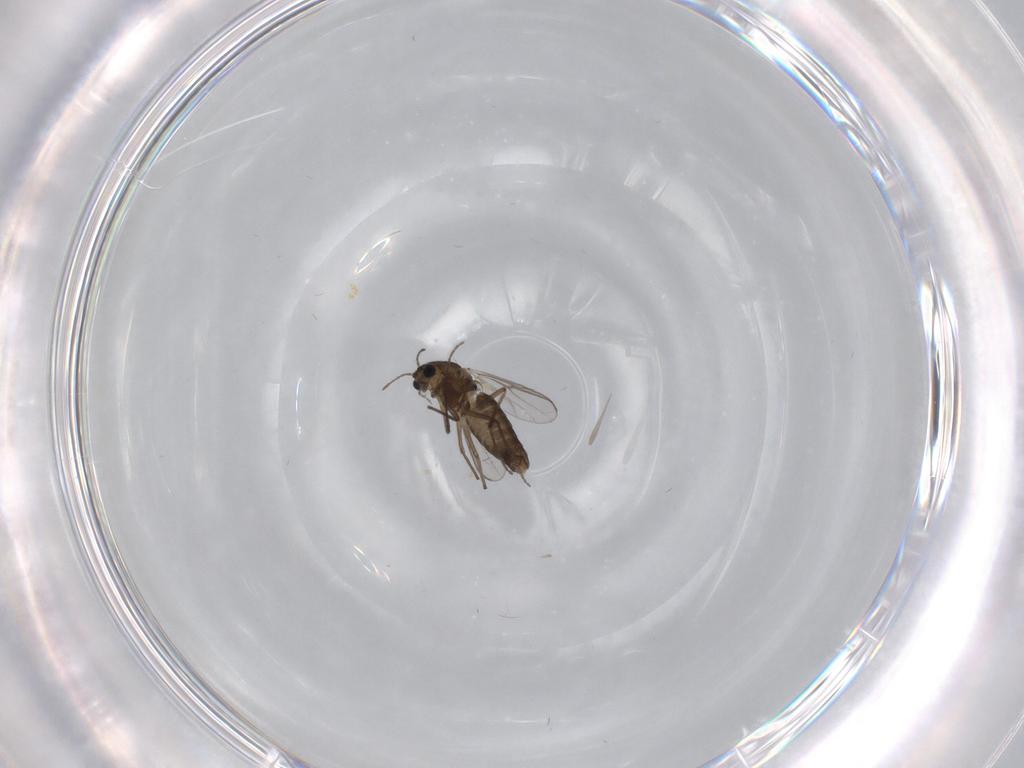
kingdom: Animalia
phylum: Arthropoda
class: Insecta
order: Diptera
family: Chironomidae
